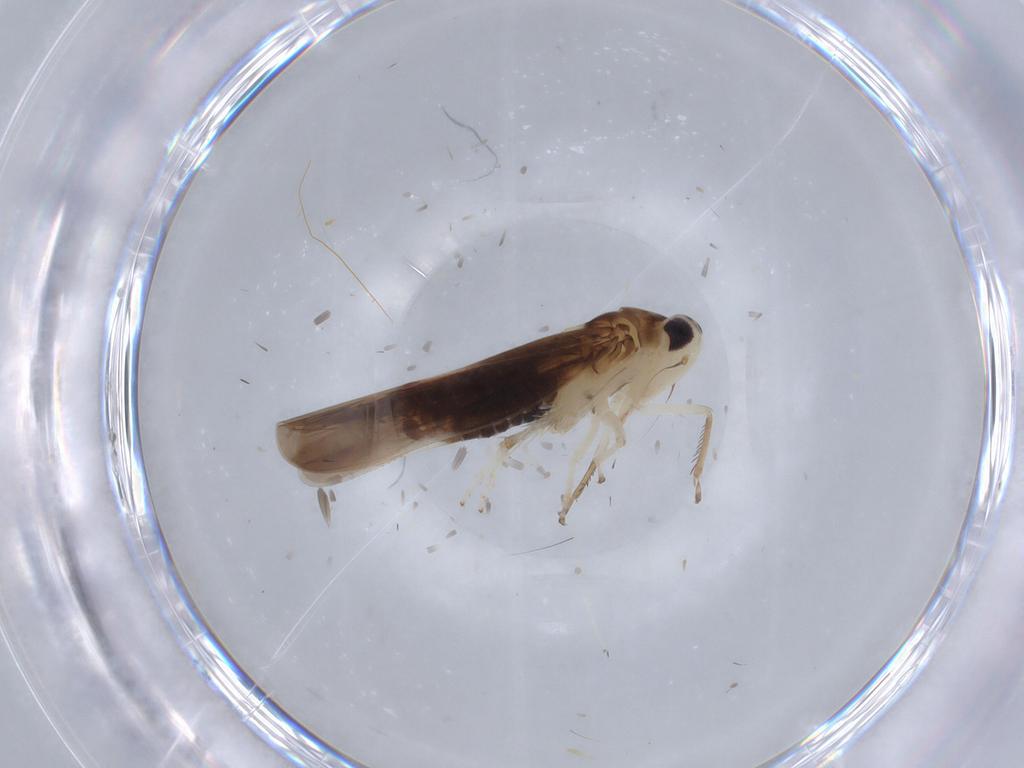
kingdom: Animalia
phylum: Arthropoda
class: Insecta
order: Hemiptera
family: Cicadellidae
